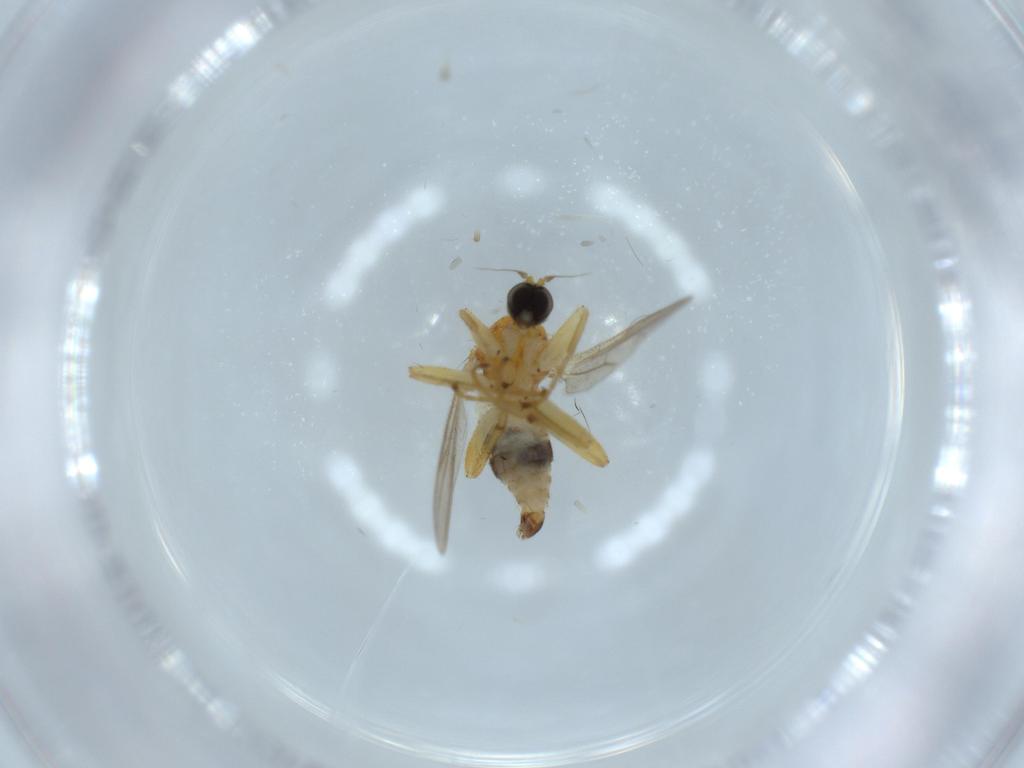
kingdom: Animalia
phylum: Arthropoda
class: Insecta
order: Diptera
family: Hybotidae
